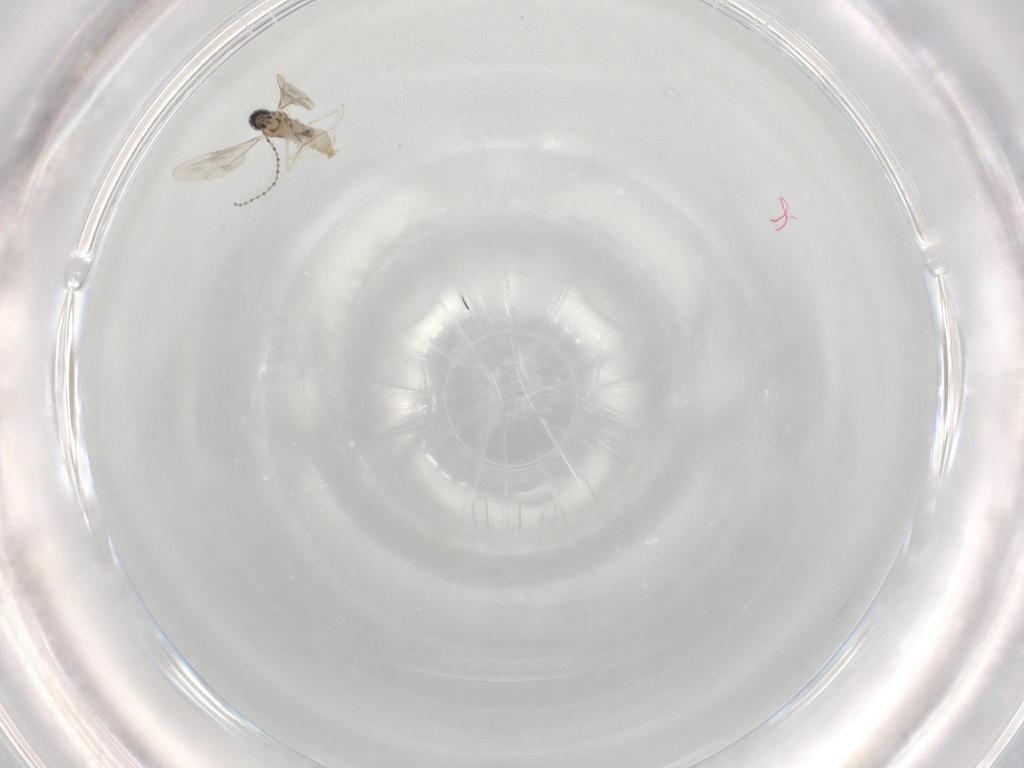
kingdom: Animalia
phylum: Arthropoda
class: Insecta
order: Diptera
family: Cecidomyiidae
